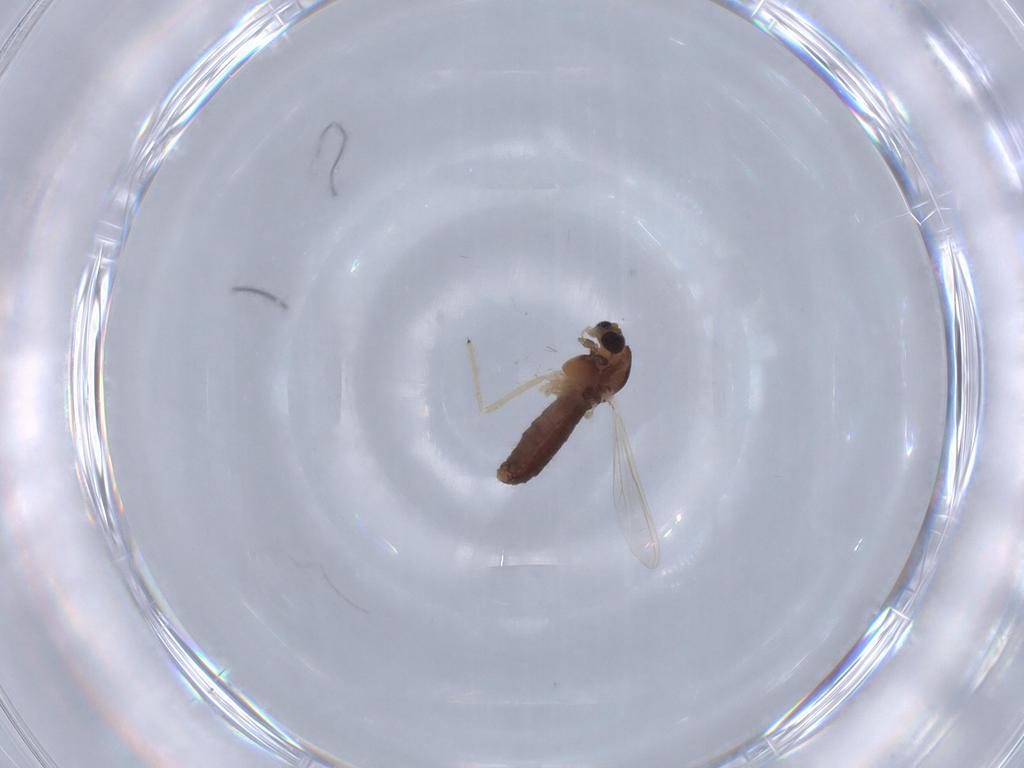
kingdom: Animalia
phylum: Arthropoda
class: Insecta
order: Diptera
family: Chironomidae
